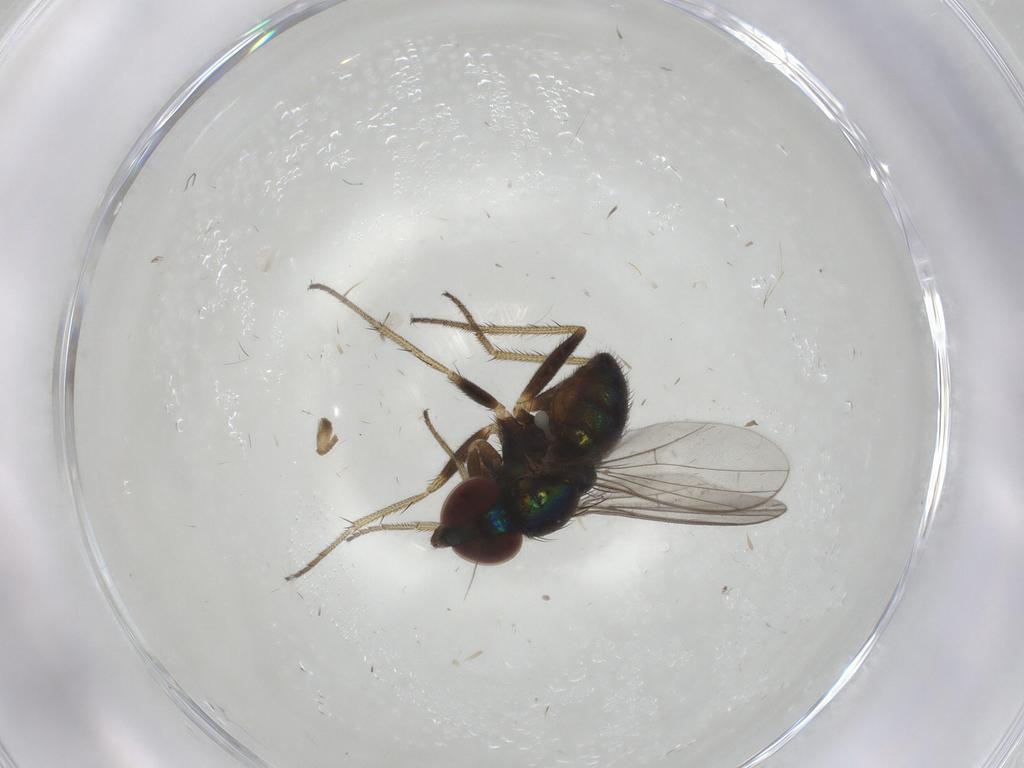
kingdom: Animalia
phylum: Arthropoda
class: Insecta
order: Diptera
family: Dolichopodidae
